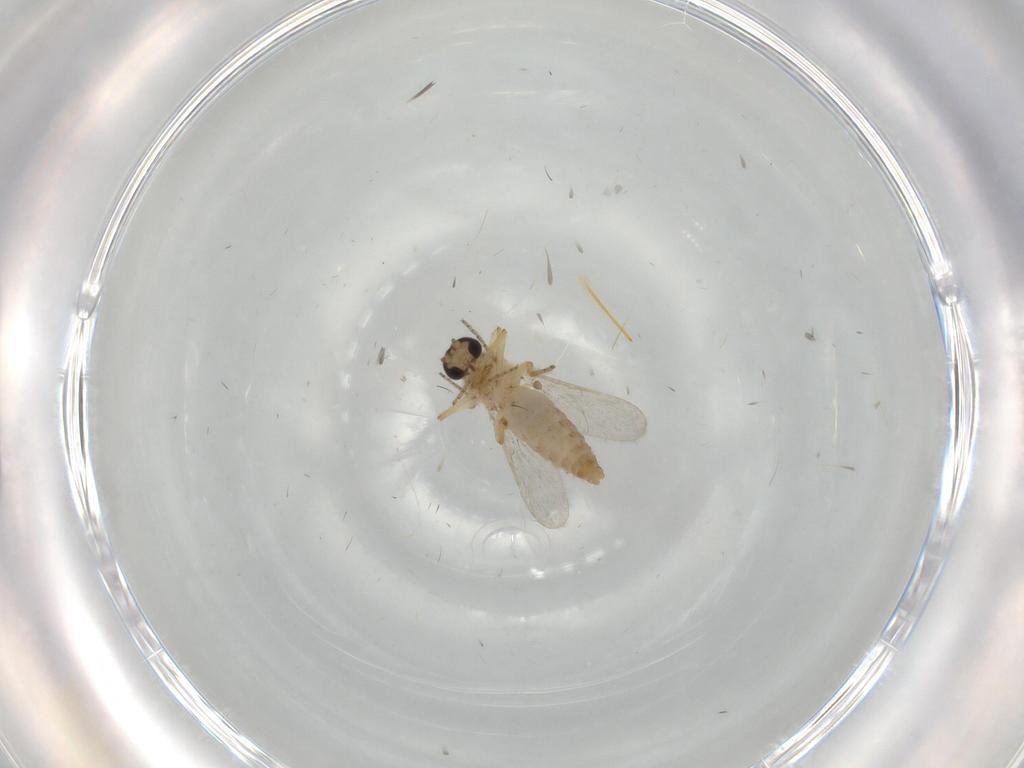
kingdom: Animalia
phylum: Arthropoda
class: Insecta
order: Diptera
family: Ceratopogonidae
